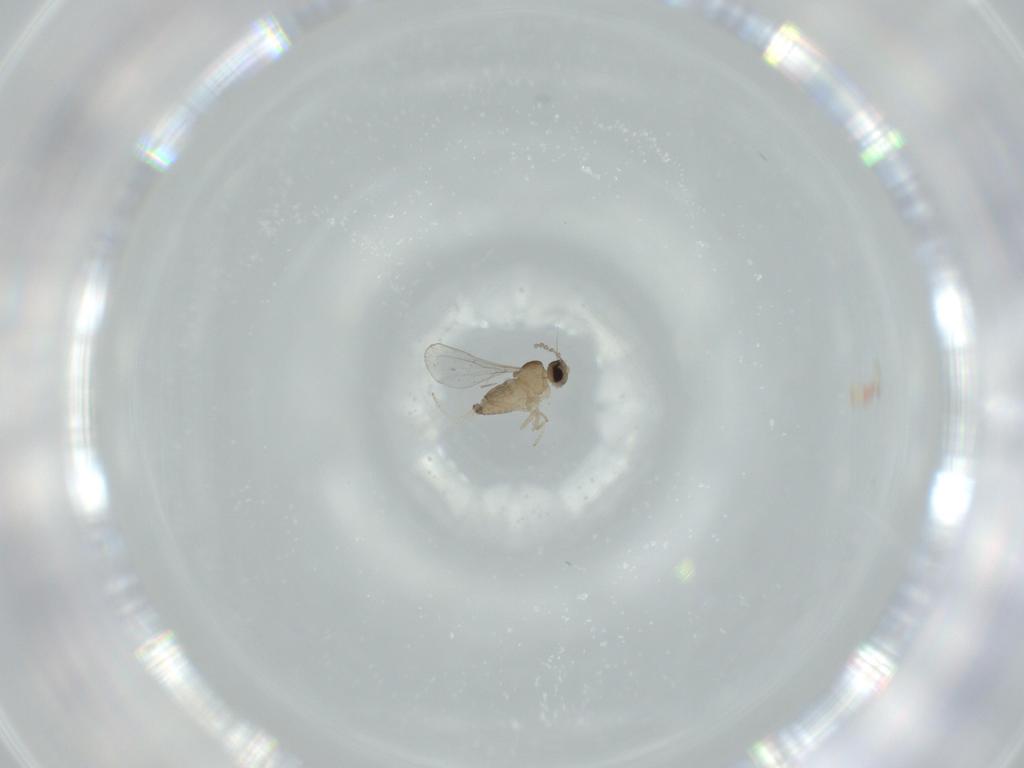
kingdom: Animalia
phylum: Arthropoda
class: Insecta
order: Diptera
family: Cecidomyiidae
